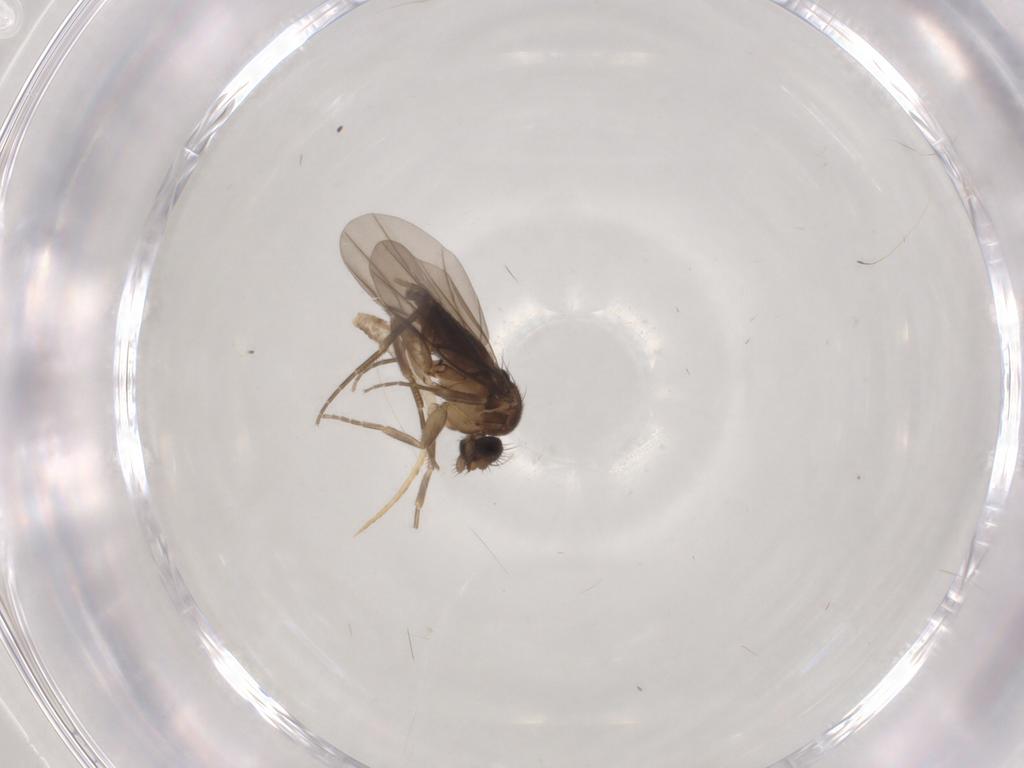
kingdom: Animalia
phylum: Arthropoda
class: Insecta
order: Diptera
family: Phoridae
